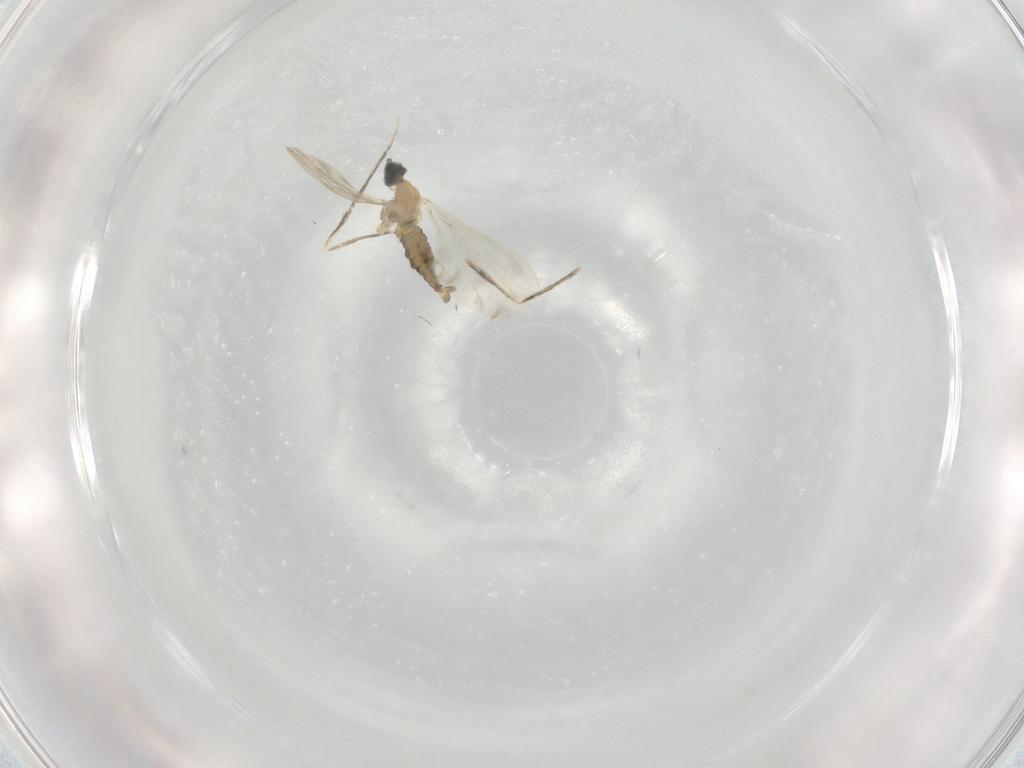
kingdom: Animalia
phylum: Arthropoda
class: Insecta
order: Diptera
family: Cecidomyiidae
